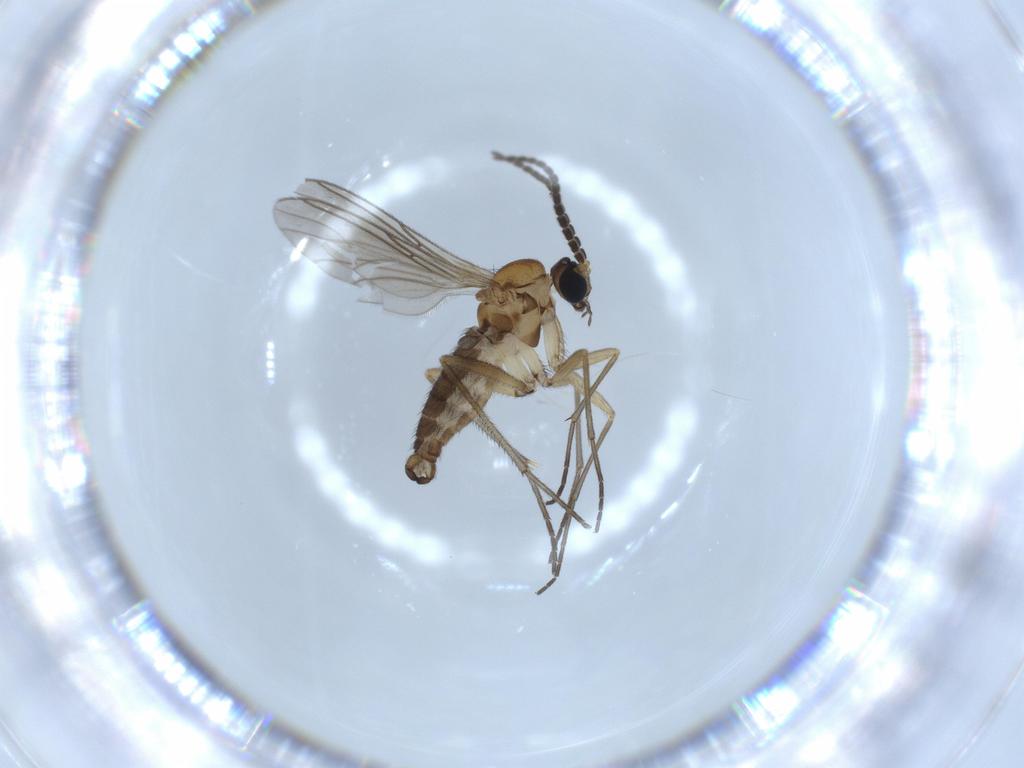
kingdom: Animalia
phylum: Arthropoda
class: Insecta
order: Diptera
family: Sciaridae
